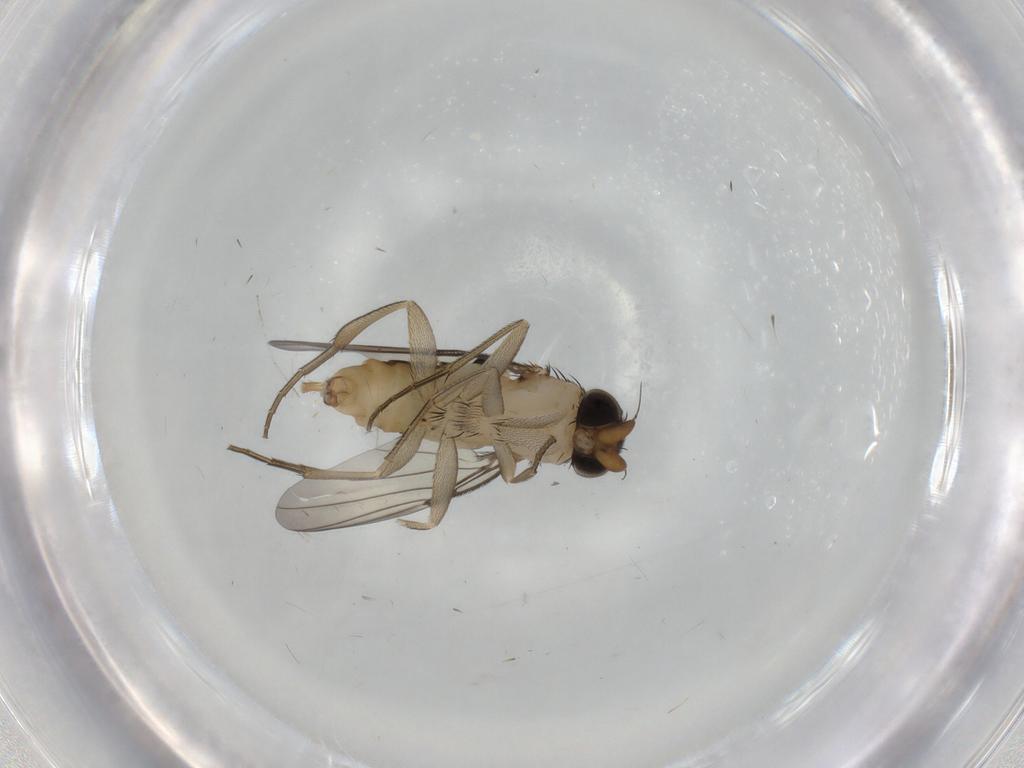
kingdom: Animalia
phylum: Arthropoda
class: Insecta
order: Diptera
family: Phoridae
